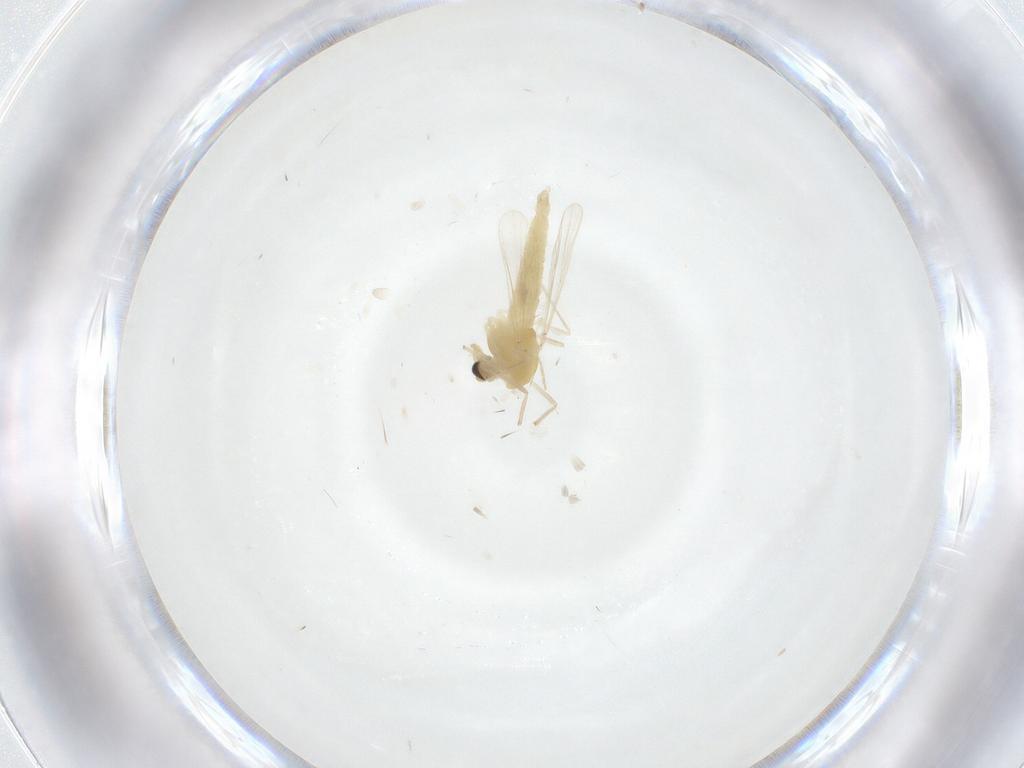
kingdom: Animalia
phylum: Arthropoda
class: Insecta
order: Diptera
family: Chironomidae
